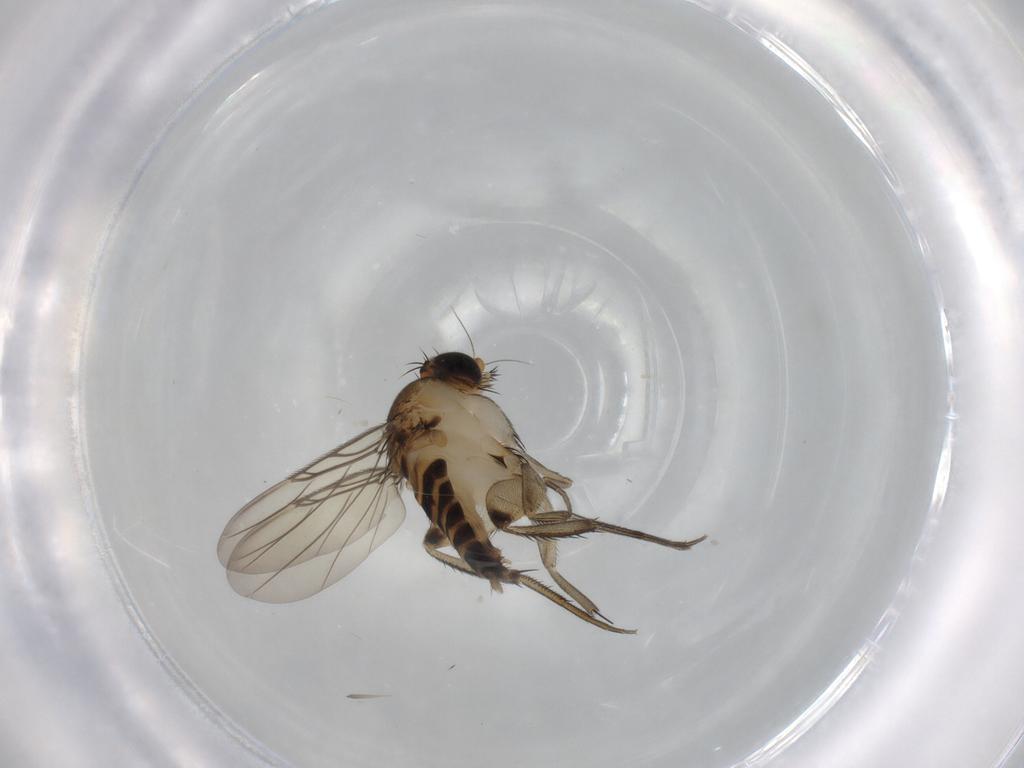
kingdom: Animalia
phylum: Arthropoda
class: Insecta
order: Diptera
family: Phoridae
